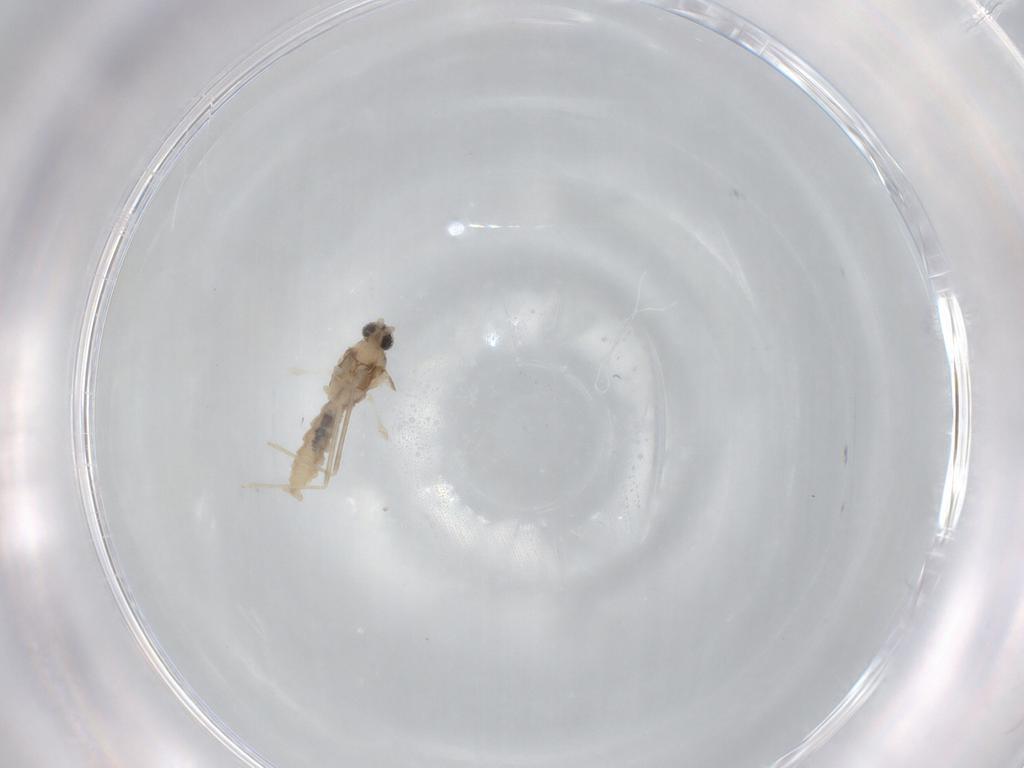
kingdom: Animalia
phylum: Arthropoda
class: Insecta
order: Diptera
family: Cecidomyiidae
